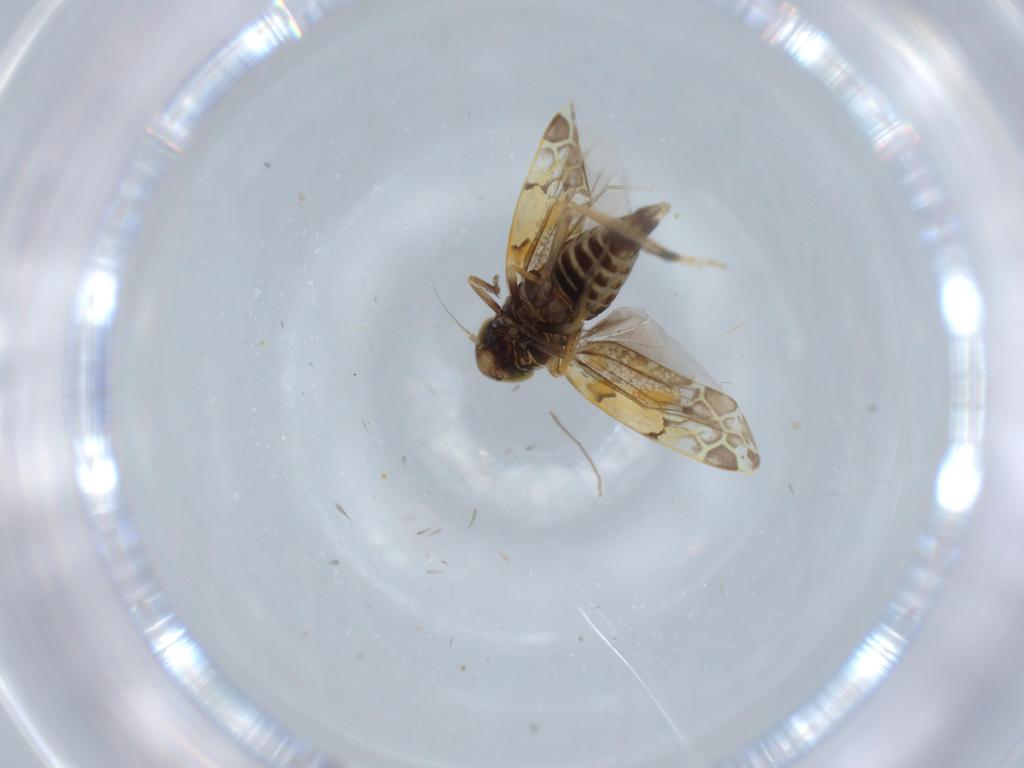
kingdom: Animalia
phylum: Arthropoda
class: Insecta
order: Hemiptera
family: Cicadellidae
